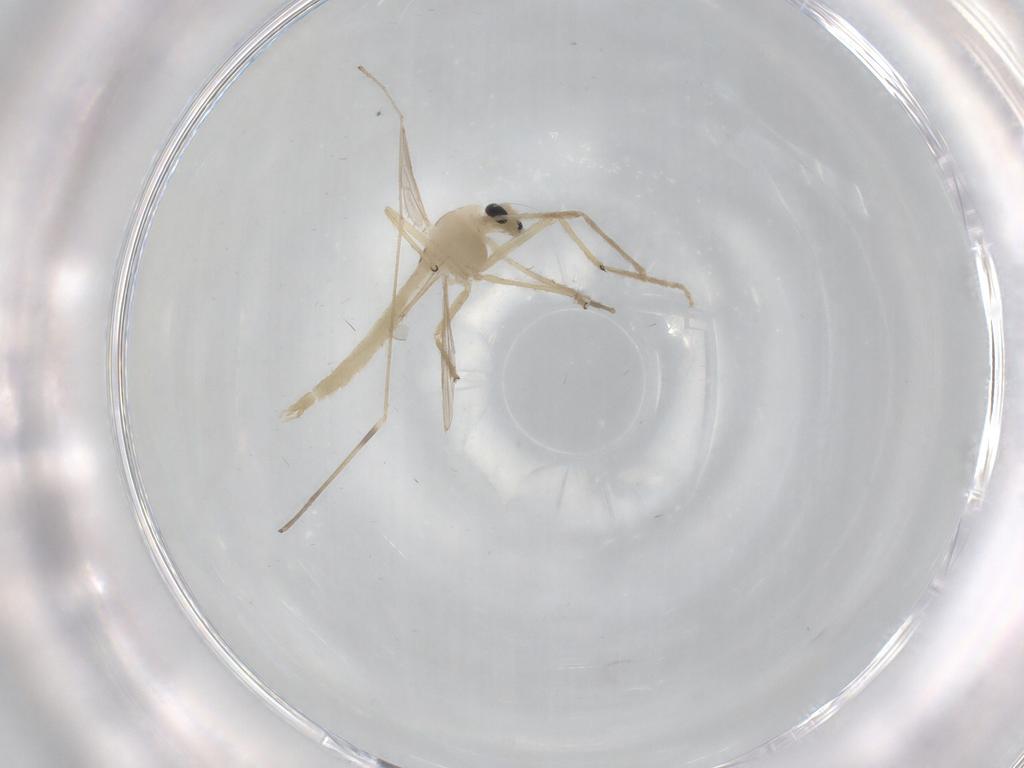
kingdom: Animalia
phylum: Arthropoda
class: Insecta
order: Diptera
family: Limoniidae
